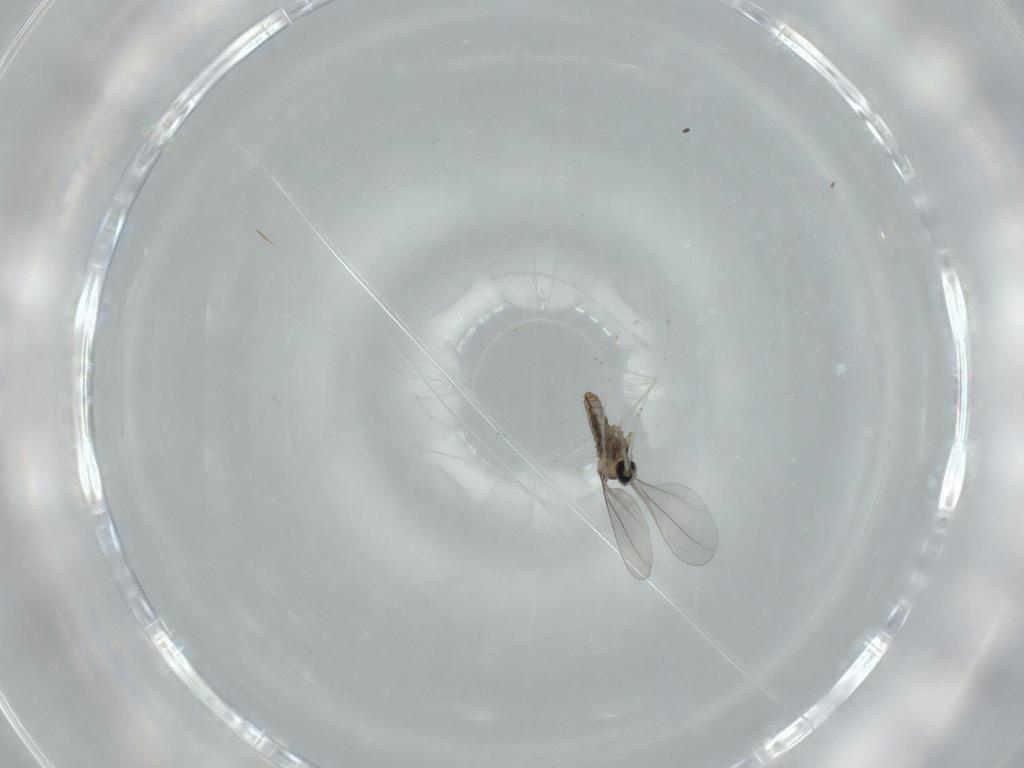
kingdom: Animalia
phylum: Arthropoda
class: Insecta
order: Diptera
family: Cecidomyiidae
